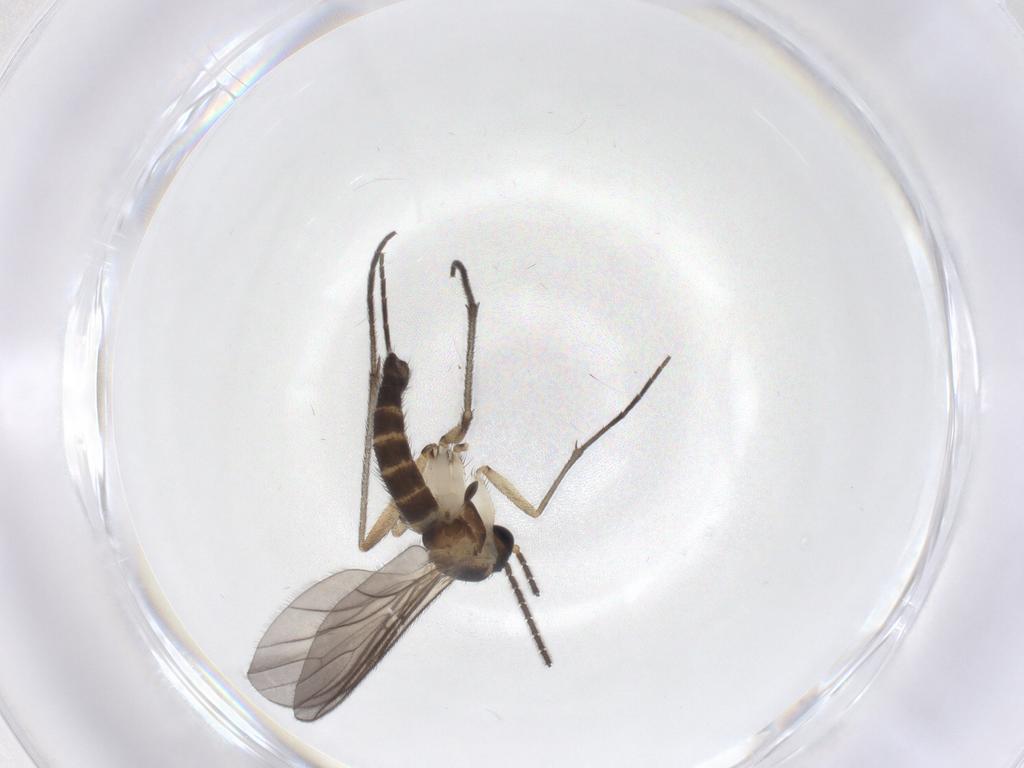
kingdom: Animalia
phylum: Arthropoda
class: Insecta
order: Diptera
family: Sciaridae
